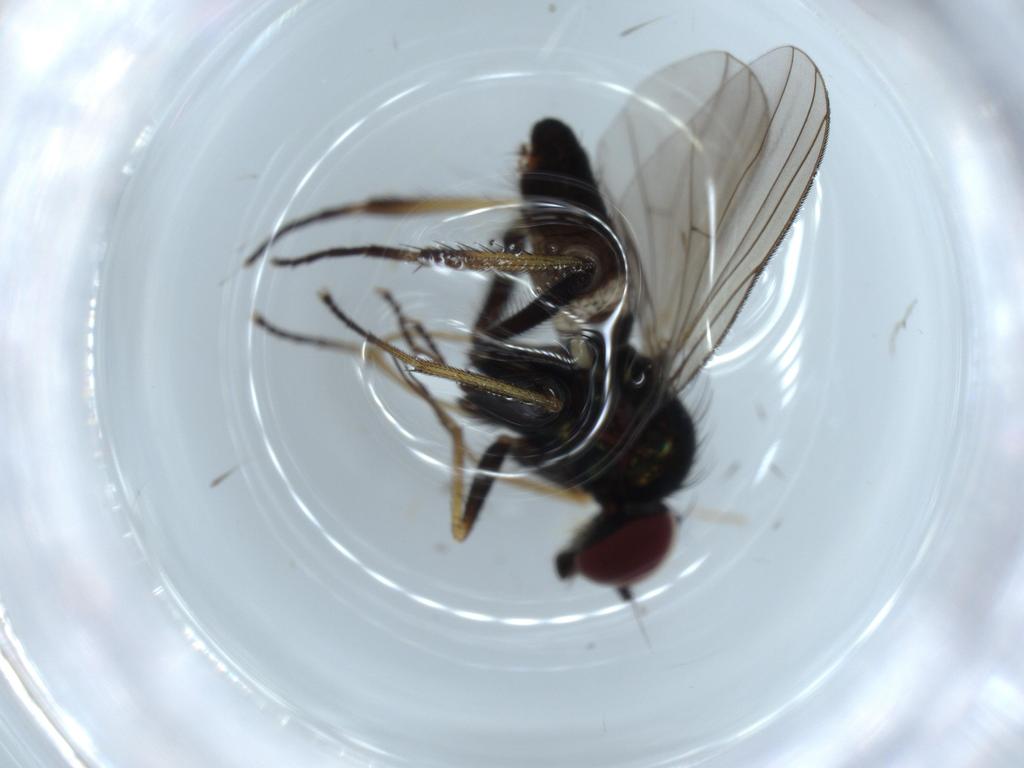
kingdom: Animalia
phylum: Arthropoda
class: Insecta
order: Diptera
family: Dolichopodidae
